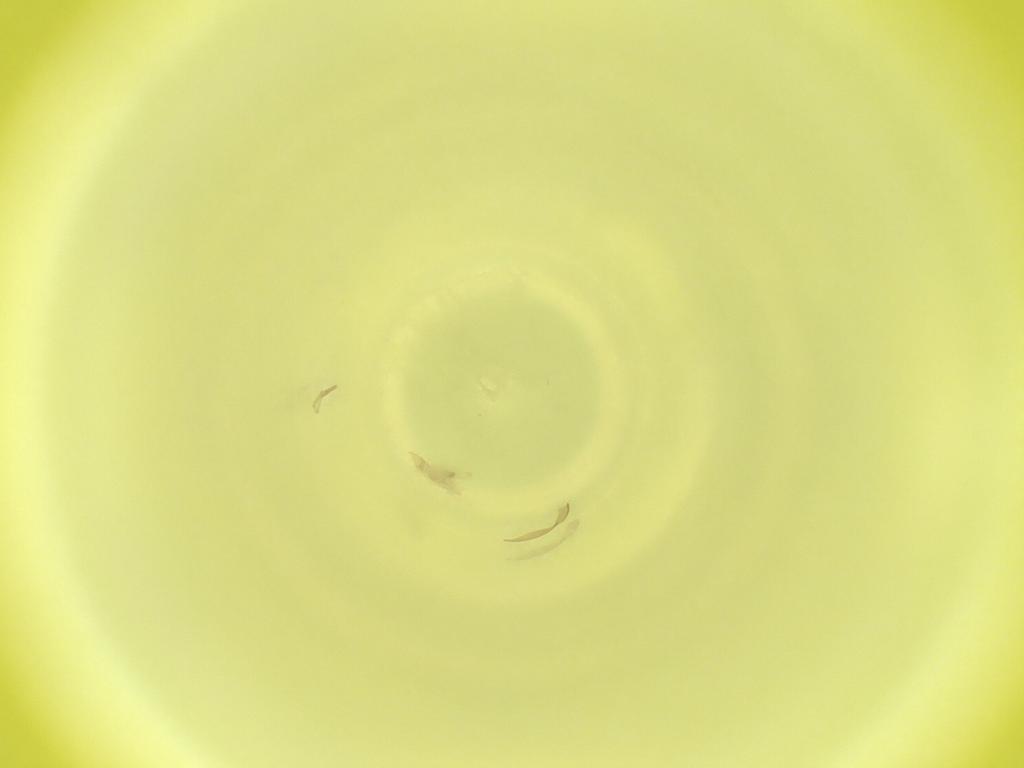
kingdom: Animalia
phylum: Arthropoda
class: Insecta
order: Diptera
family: Cecidomyiidae
